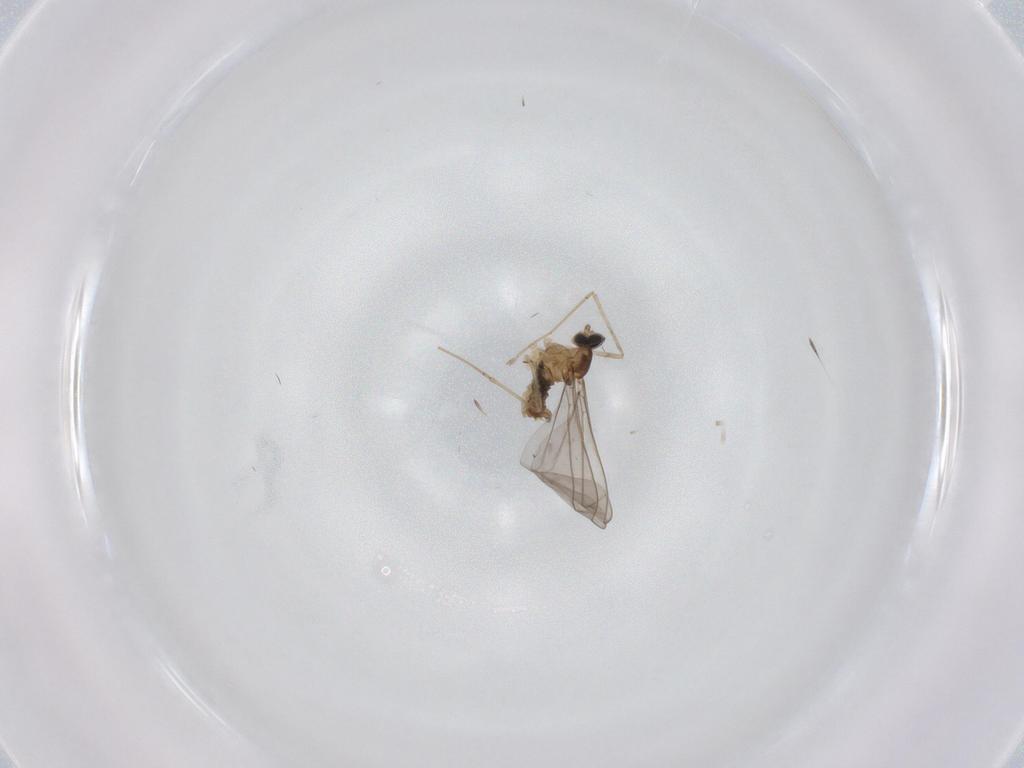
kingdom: Animalia
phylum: Arthropoda
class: Insecta
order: Diptera
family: Cecidomyiidae
